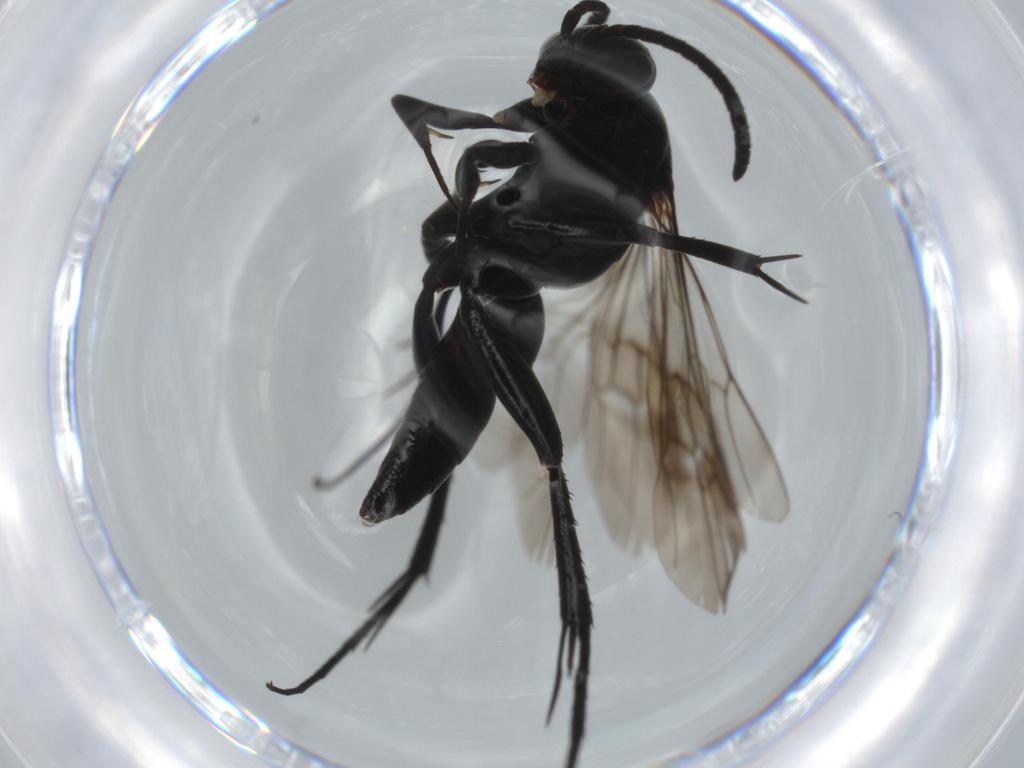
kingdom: Animalia
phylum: Arthropoda
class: Insecta
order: Hymenoptera
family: Pompilidae
